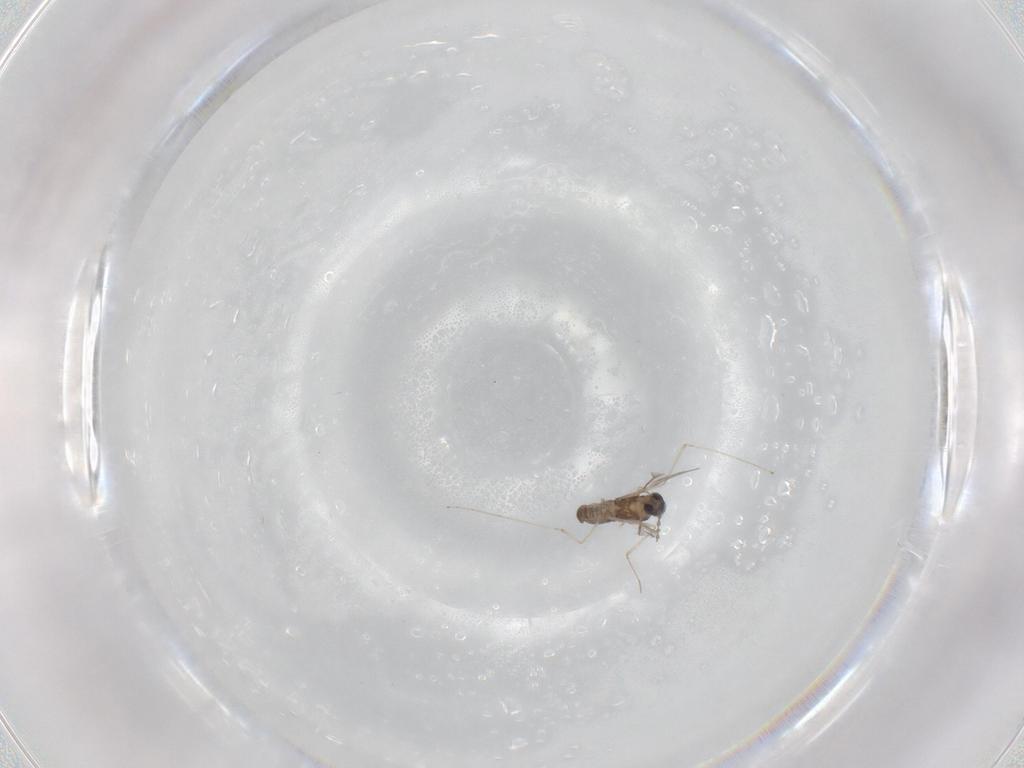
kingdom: Animalia
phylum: Arthropoda
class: Insecta
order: Diptera
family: Cecidomyiidae
